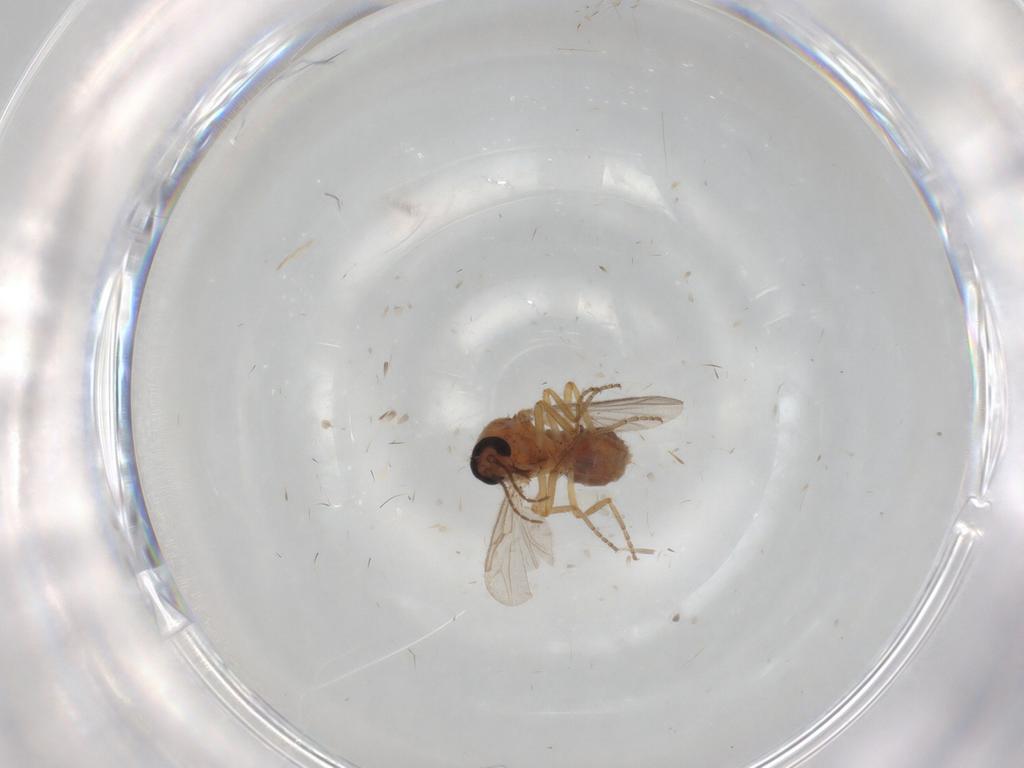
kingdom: Animalia
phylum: Arthropoda
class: Insecta
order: Diptera
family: Ceratopogonidae
